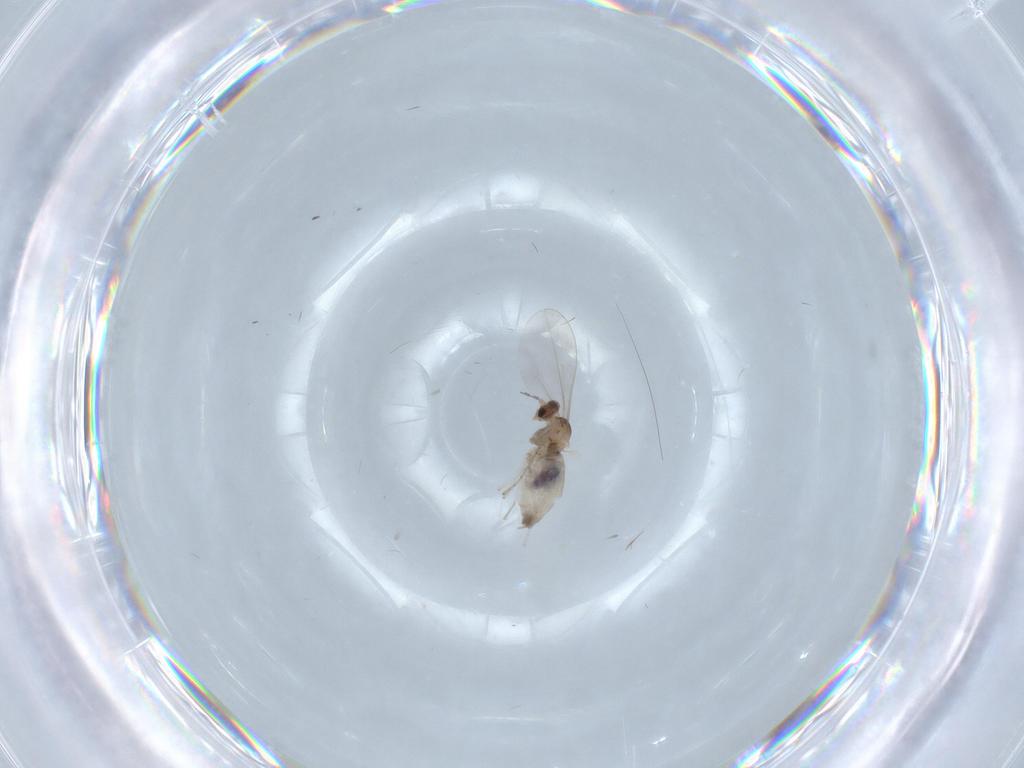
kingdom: Animalia
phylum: Arthropoda
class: Insecta
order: Diptera
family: Cecidomyiidae
